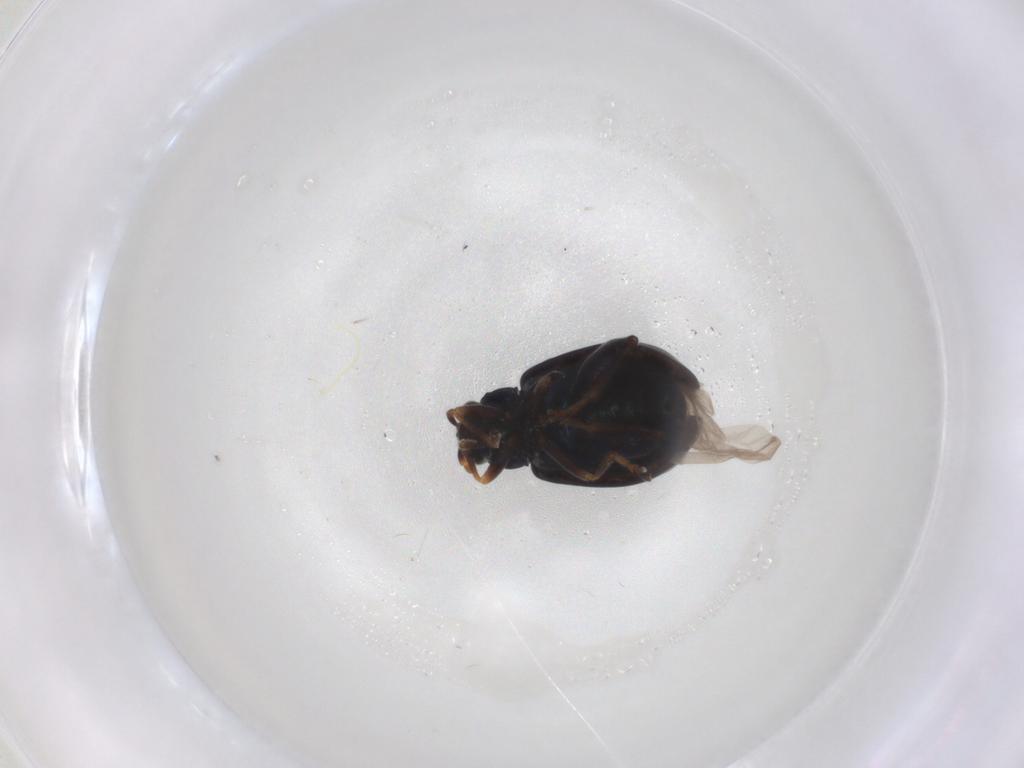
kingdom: Animalia
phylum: Arthropoda
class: Insecta
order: Coleoptera
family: Chrysomelidae
